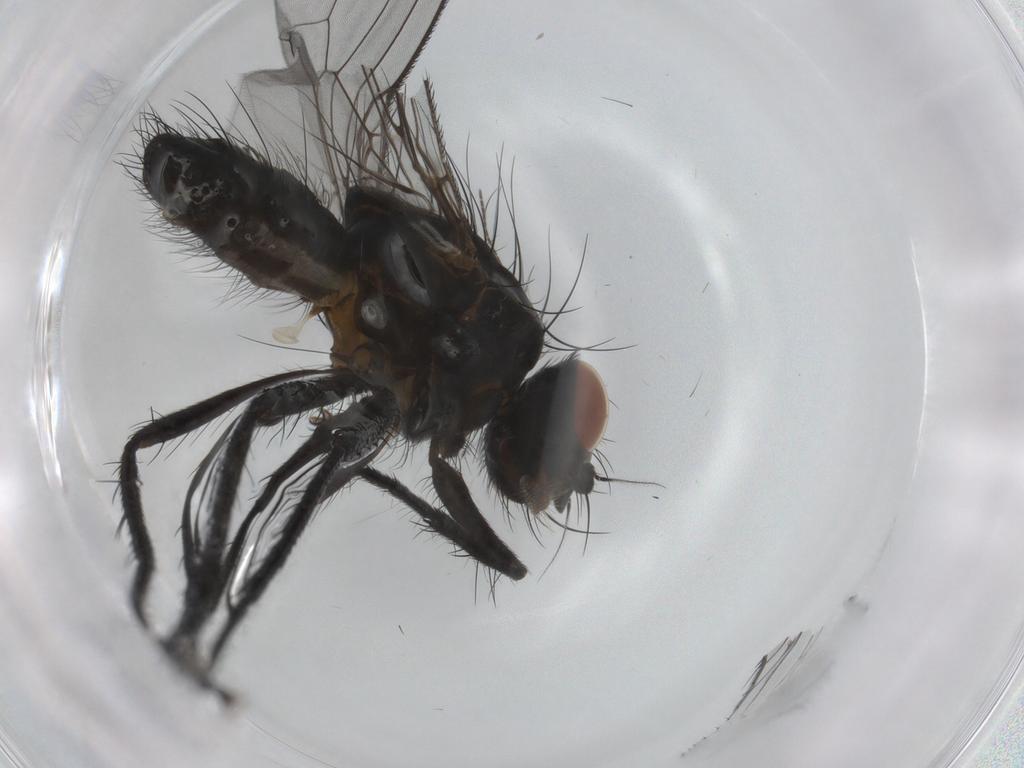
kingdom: Animalia
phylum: Arthropoda
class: Insecta
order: Diptera
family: Anthomyiidae
